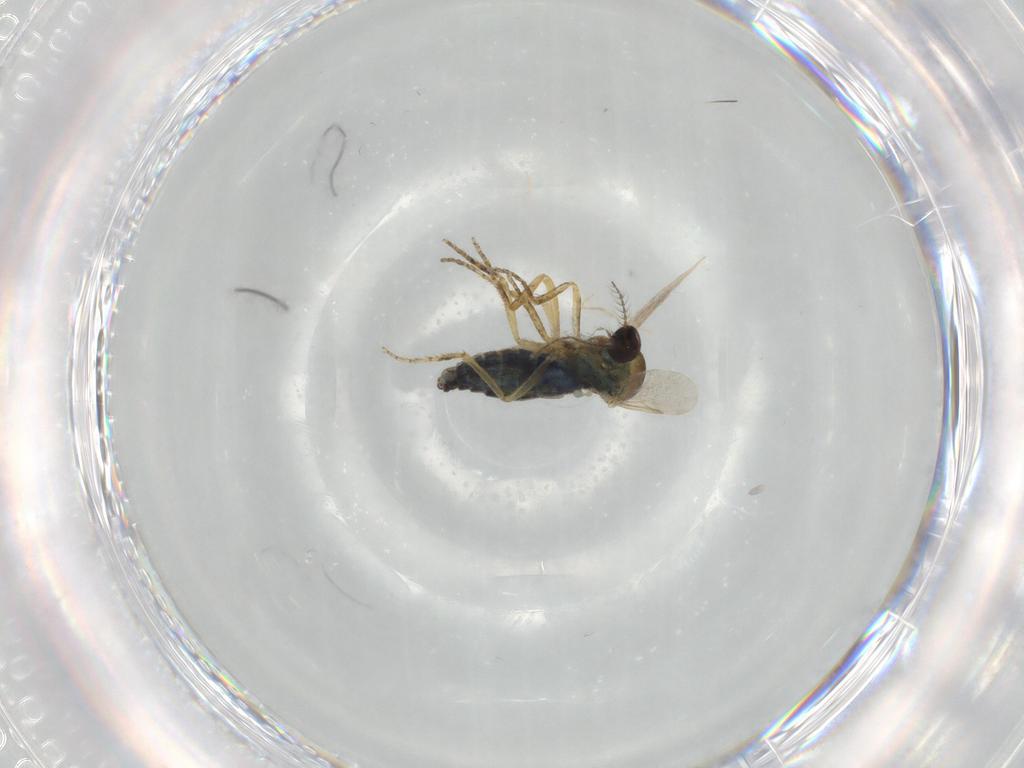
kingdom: Animalia
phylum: Arthropoda
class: Insecta
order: Diptera
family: Ceratopogonidae
